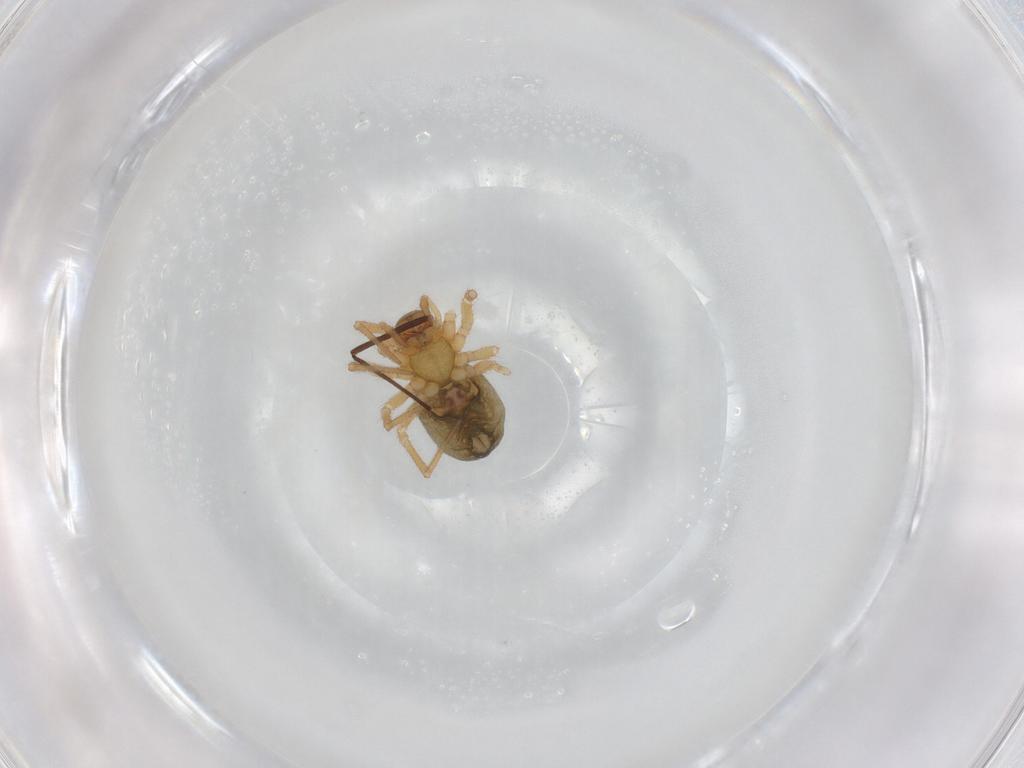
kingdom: Animalia
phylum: Arthropoda
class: Arachnida
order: Araneae
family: Linyphiidae
